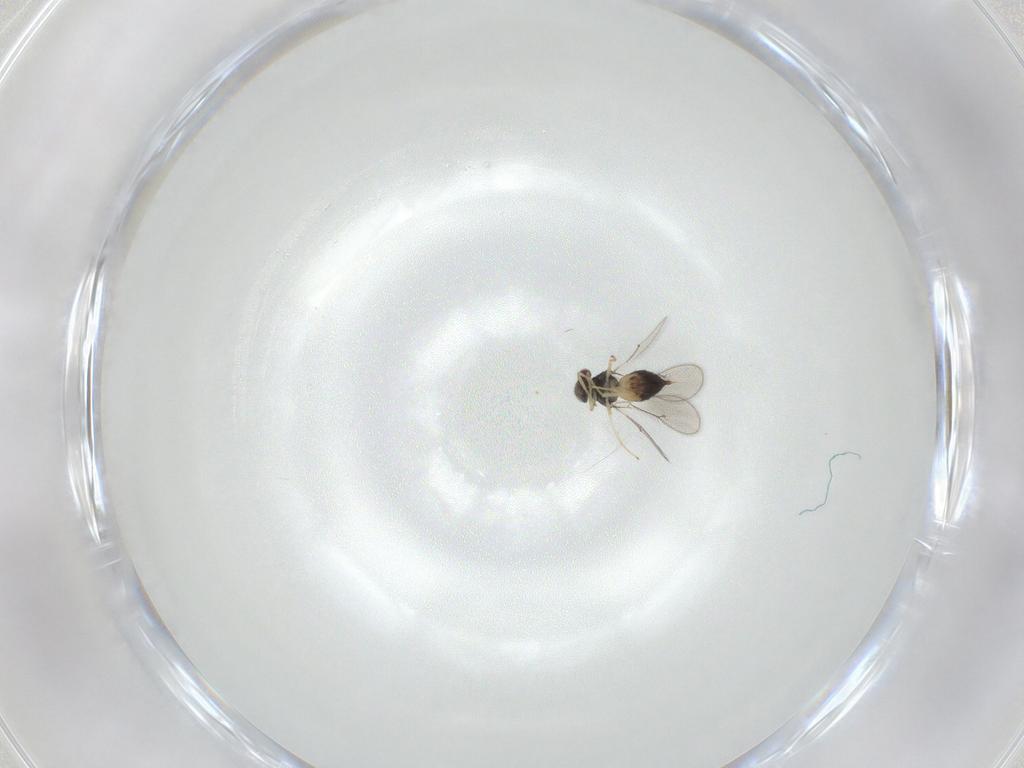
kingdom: Animalia
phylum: Arthropoda
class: Insecta
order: Hymenoptera
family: Eulophidae
